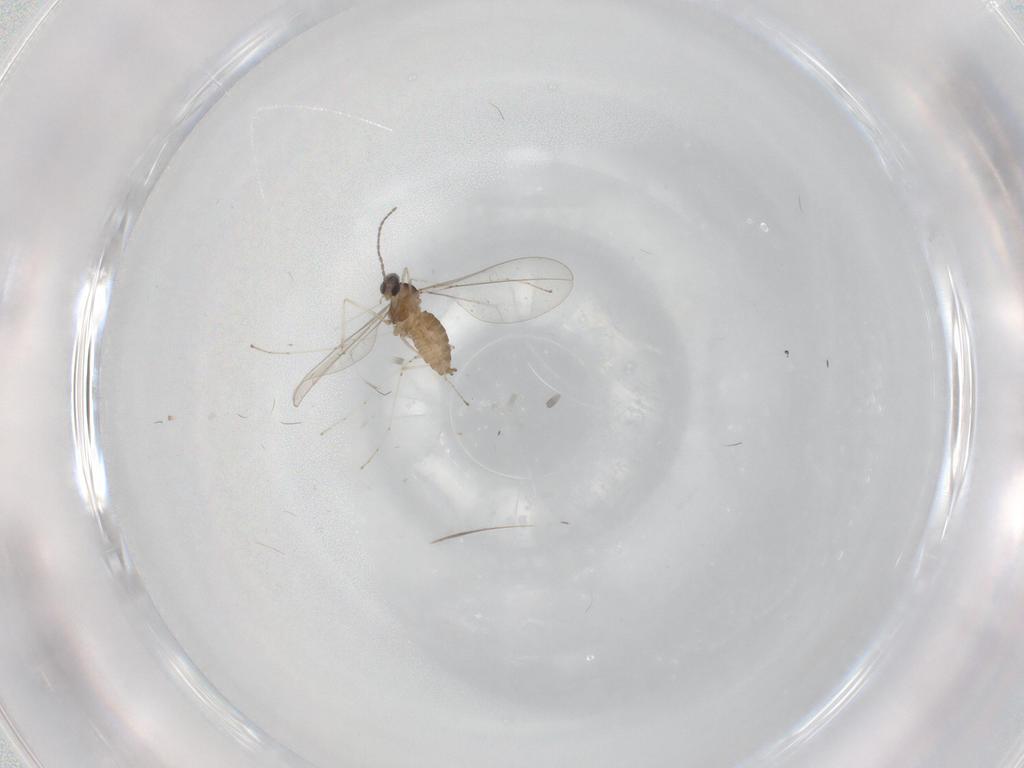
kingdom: Animalia
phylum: Arthropoda
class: Insecta
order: Diptera
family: Cecidomyiidae
